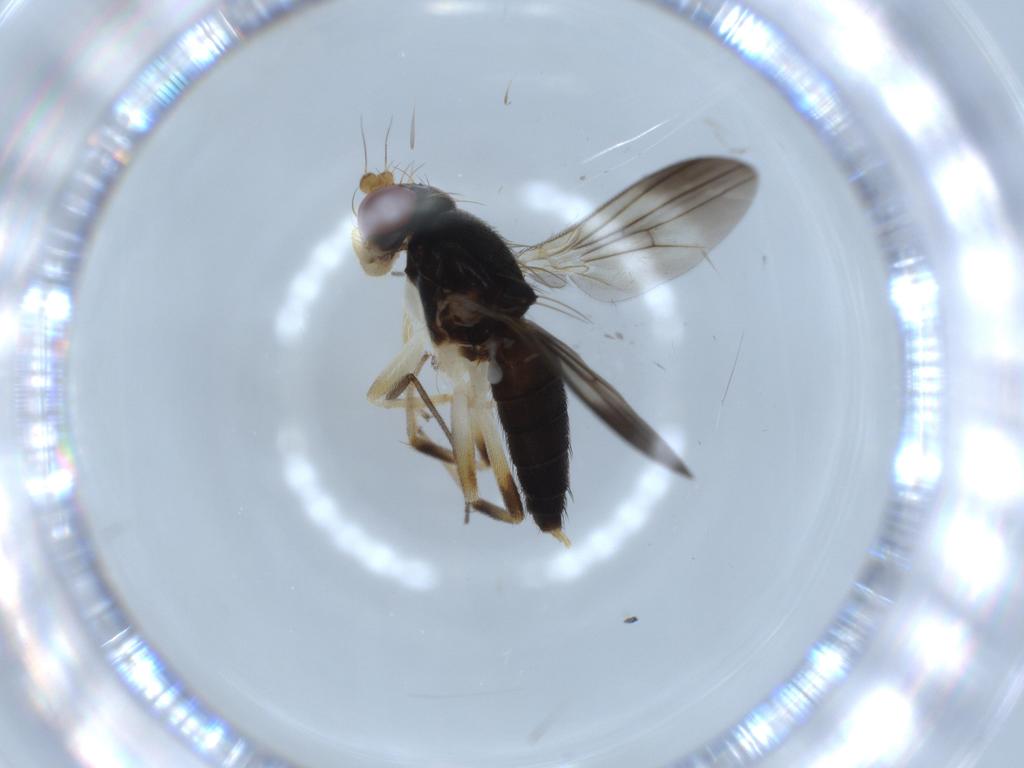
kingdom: Animalia
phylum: Arthropoda
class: Insecta
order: Diptera
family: Clusiidae
